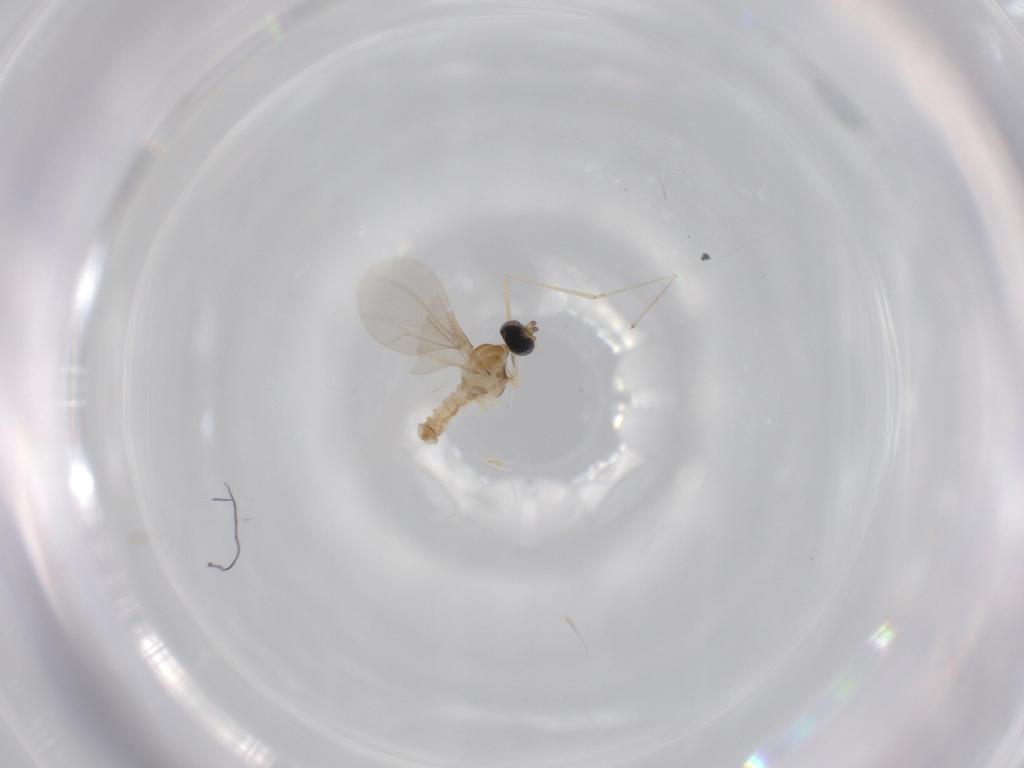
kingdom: Animalia
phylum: Arthropoda
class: Insecta
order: Diptera
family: Cecidomyiidae
